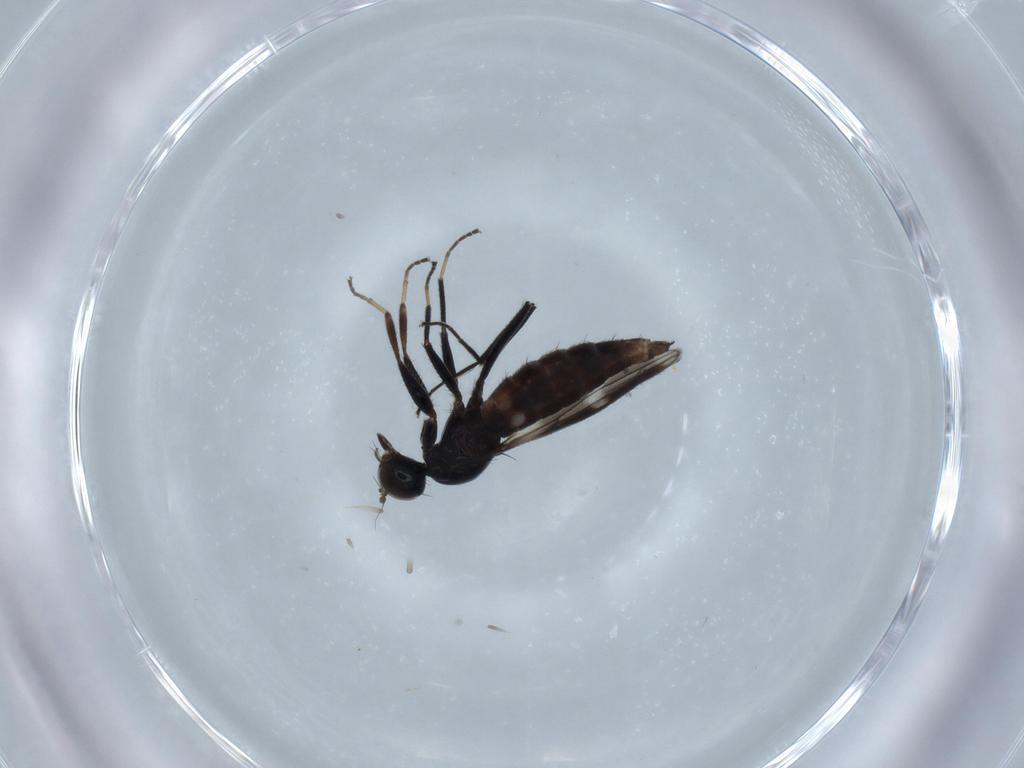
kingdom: Animalia
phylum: Arthropoda
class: Insecta
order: Diptera
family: Hybotidae
